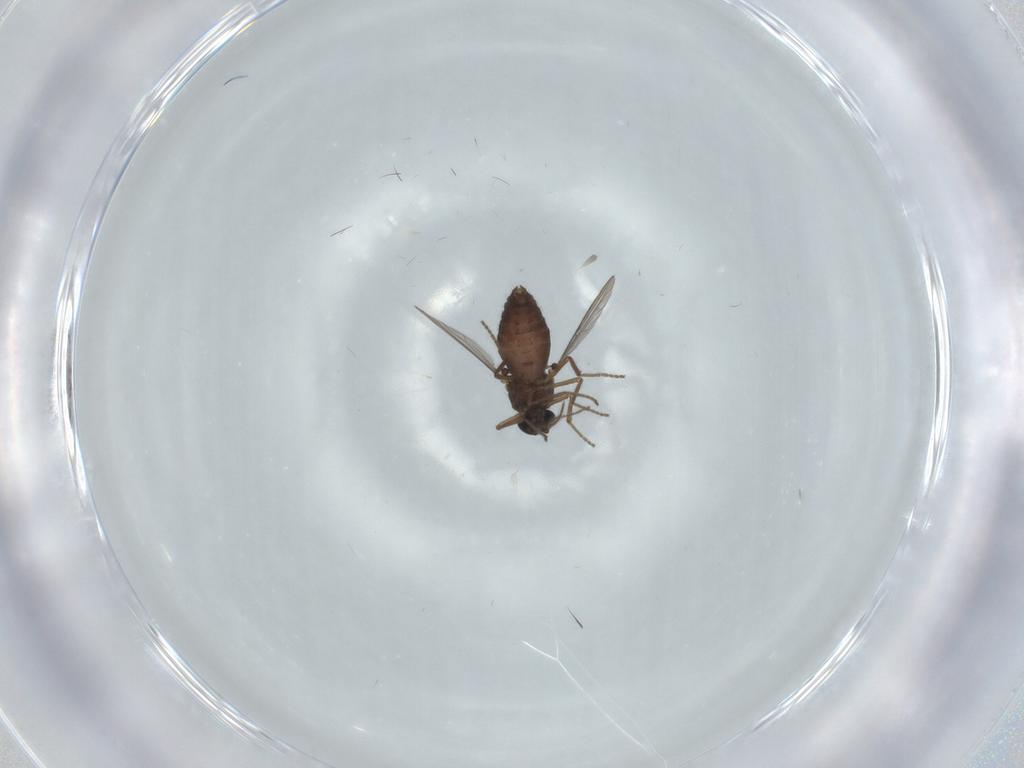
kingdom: Animalia
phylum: Arthropoda
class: Insecta
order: Diptera
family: Ceratopogonidae
